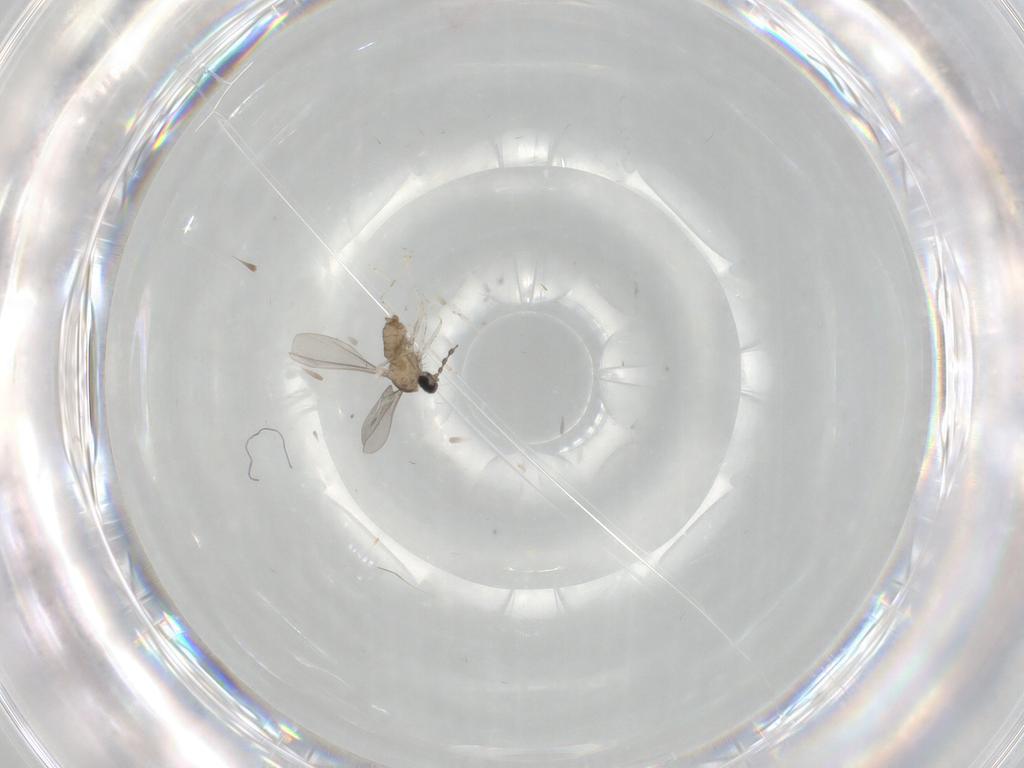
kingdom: Animalia
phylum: Arthropoda
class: Insecta
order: Diptera
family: Cecidomyiidae
